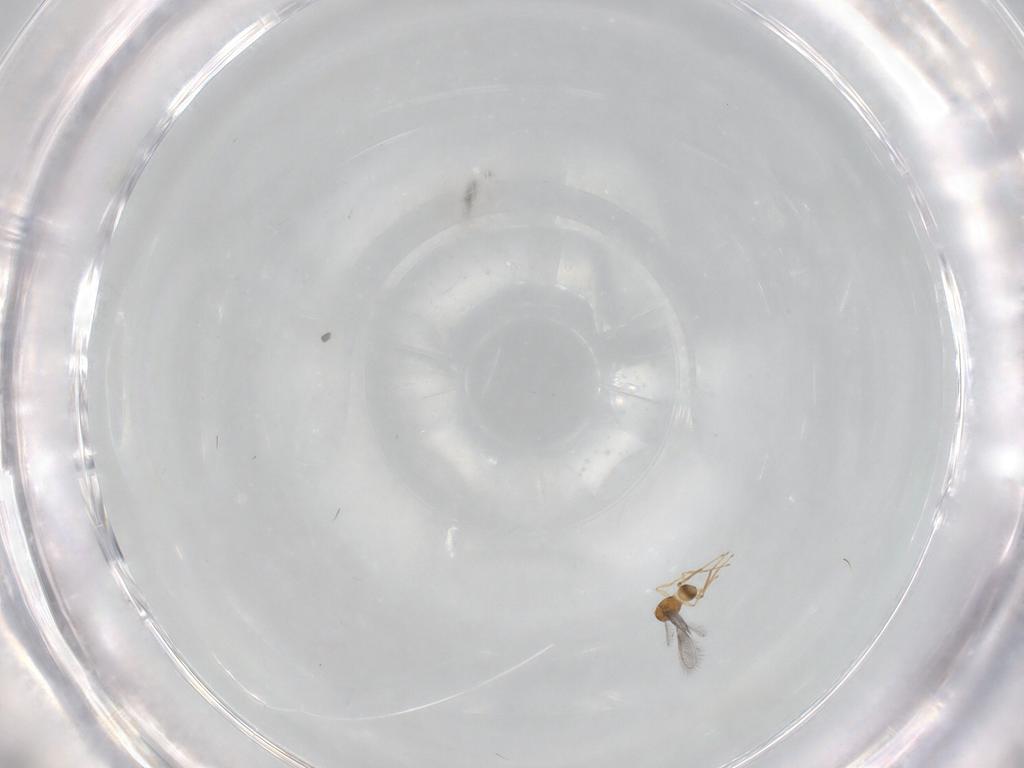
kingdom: Animalia
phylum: Arthropoda
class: Insecta
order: Hymenoptera
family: Mymaridae
